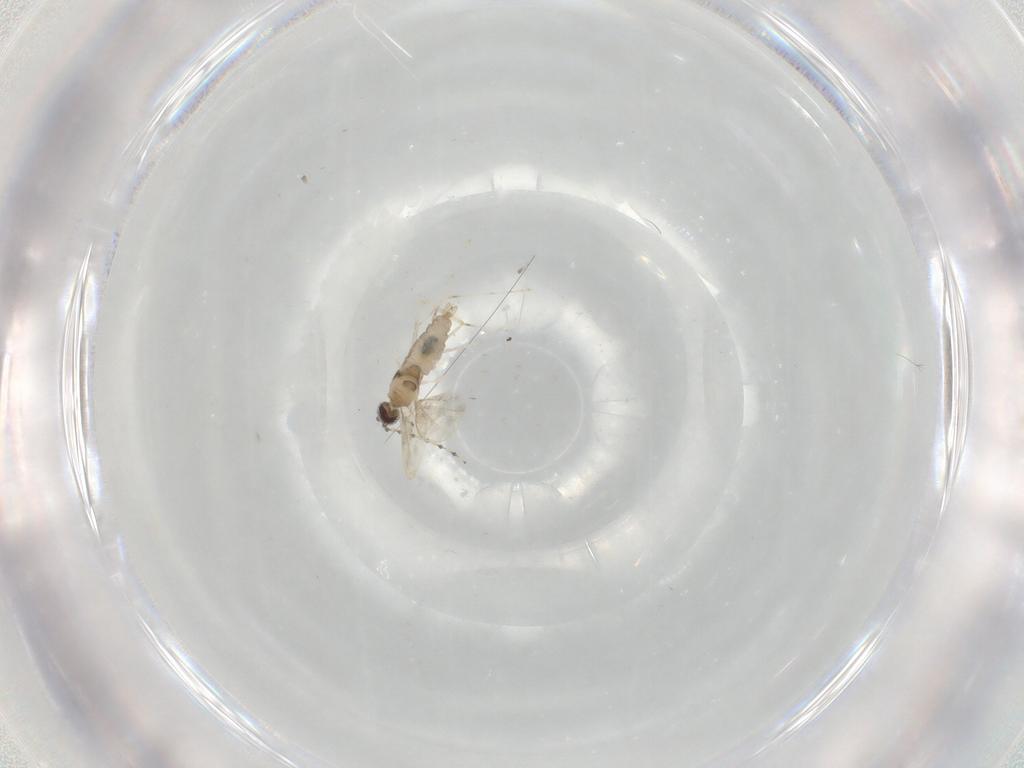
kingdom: Animalia
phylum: Arthropoda
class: Insecta
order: Diptera
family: Cecidomyiidae
